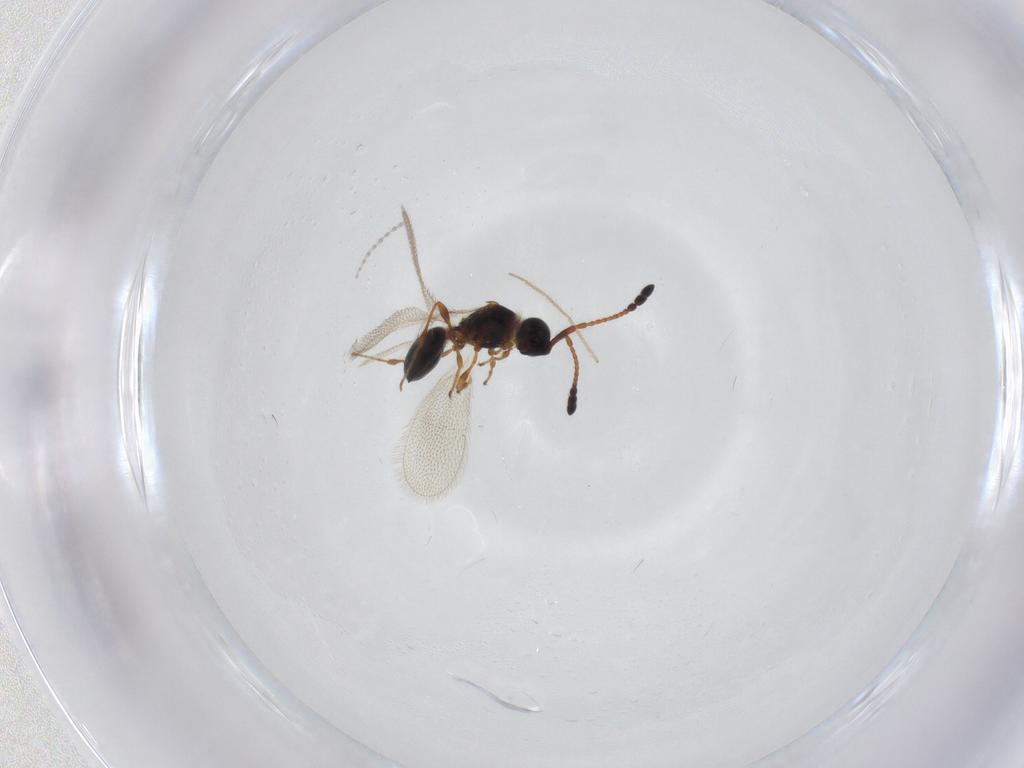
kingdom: Animalia
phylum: Arthropoda
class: Insecta
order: Hymenoptera
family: Diapriidae
